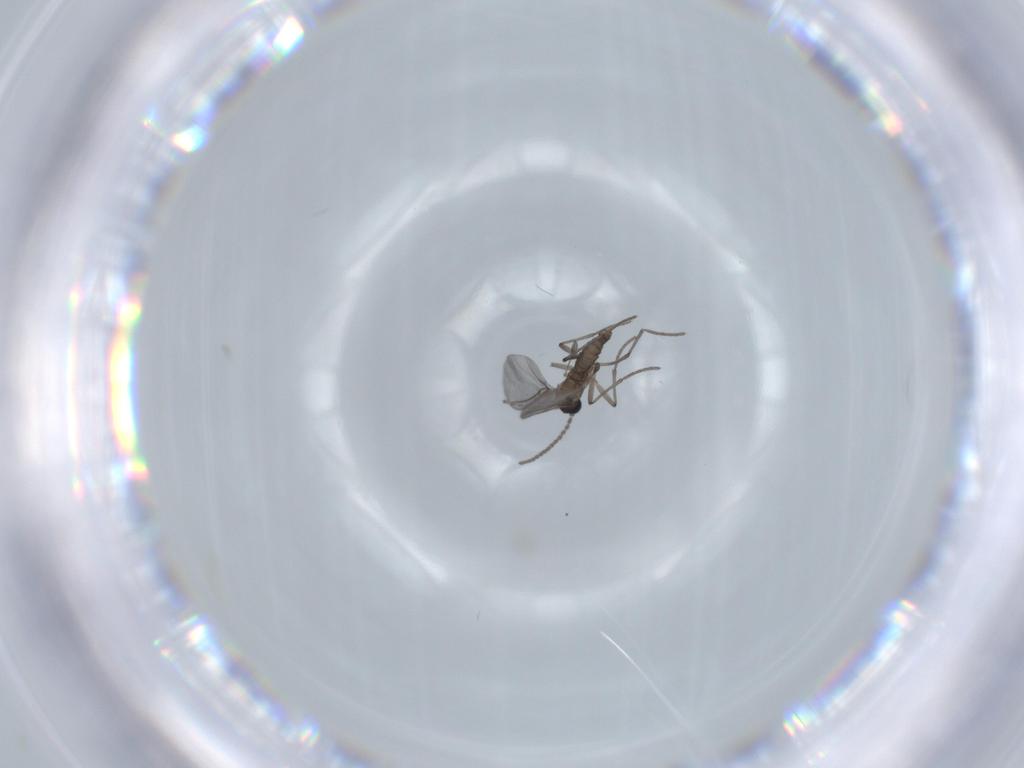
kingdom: Animalia
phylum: Arthropoda
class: Insecta
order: Diptera
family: Sciaridae
